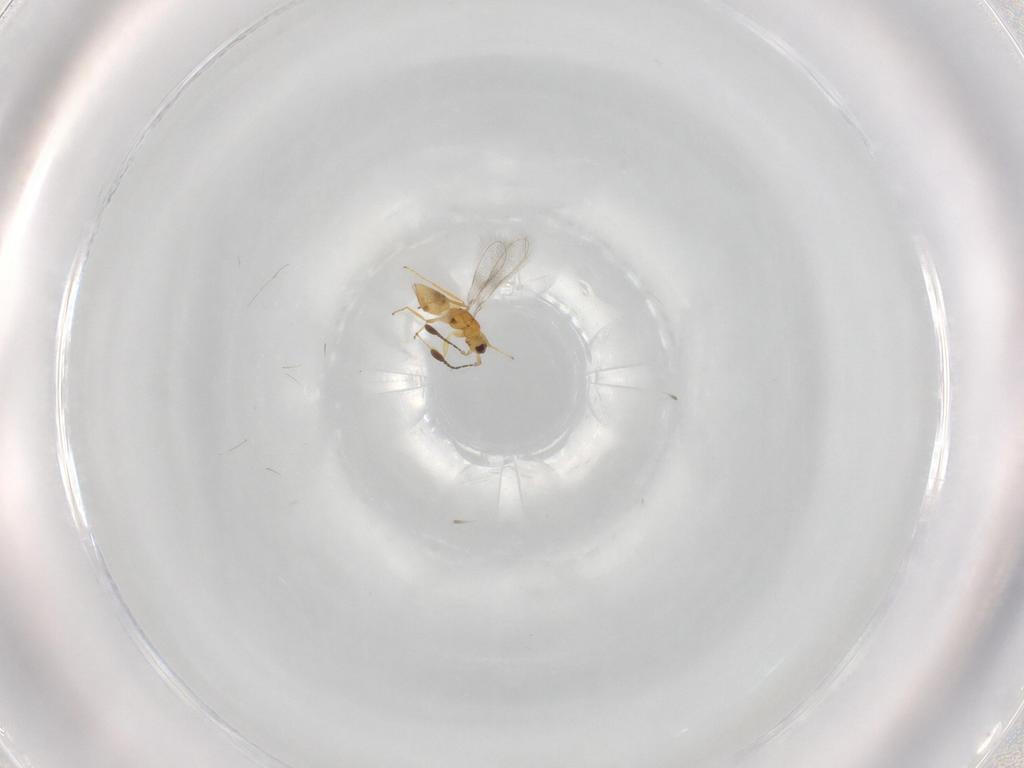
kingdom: Animalia
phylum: Arthropoda
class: Insecta
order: Hymenoptera
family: Mymaridae
